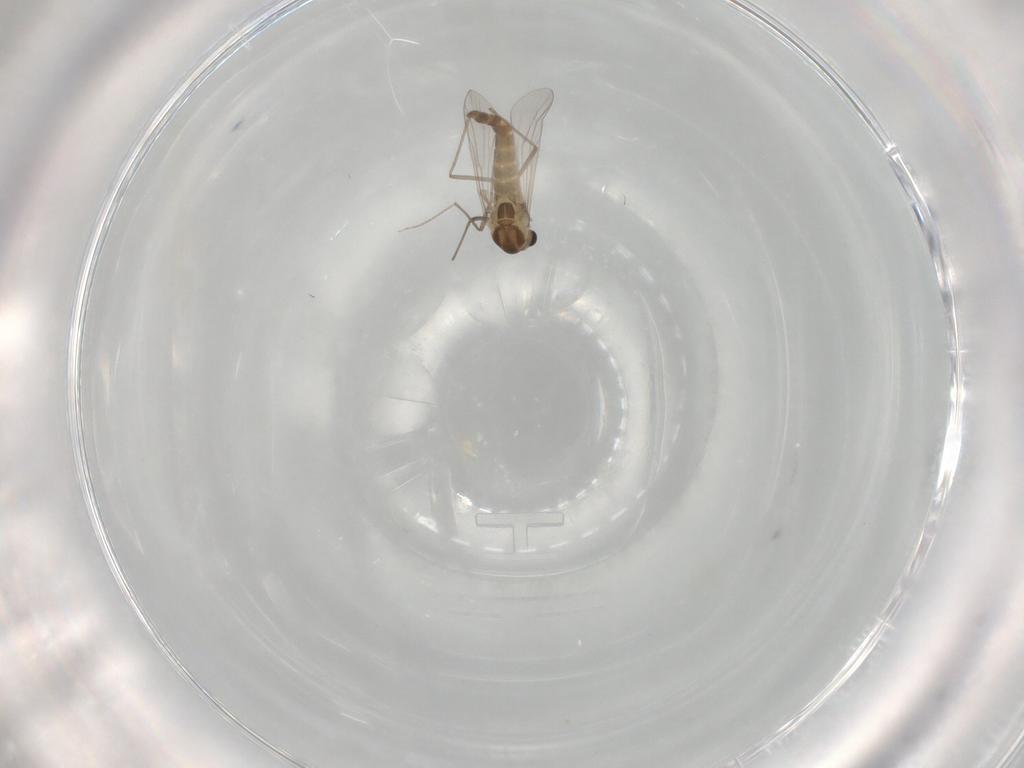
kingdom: Animalia
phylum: Arthropoda
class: Insecta
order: Diptera
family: Chironomidae
